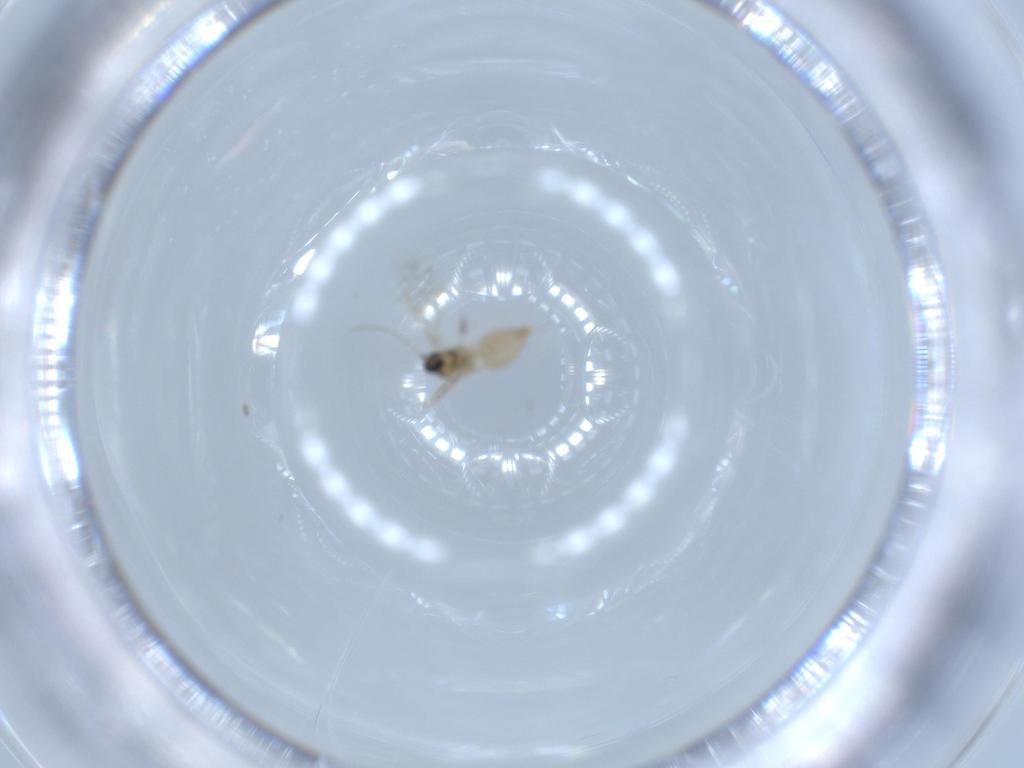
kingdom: Animalia
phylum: Arthropoda
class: Insecta
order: Diptera
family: Cecidomyiidae
